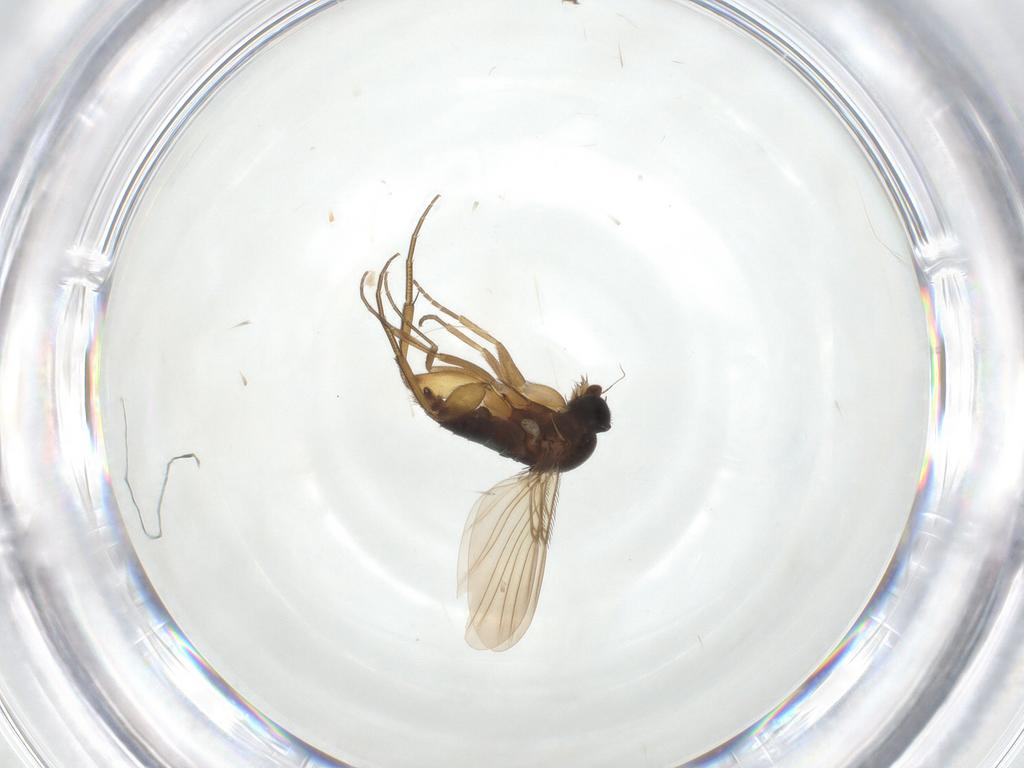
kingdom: Animalia
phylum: Arthropoda
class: Insecta
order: Diptera
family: Phoridae
